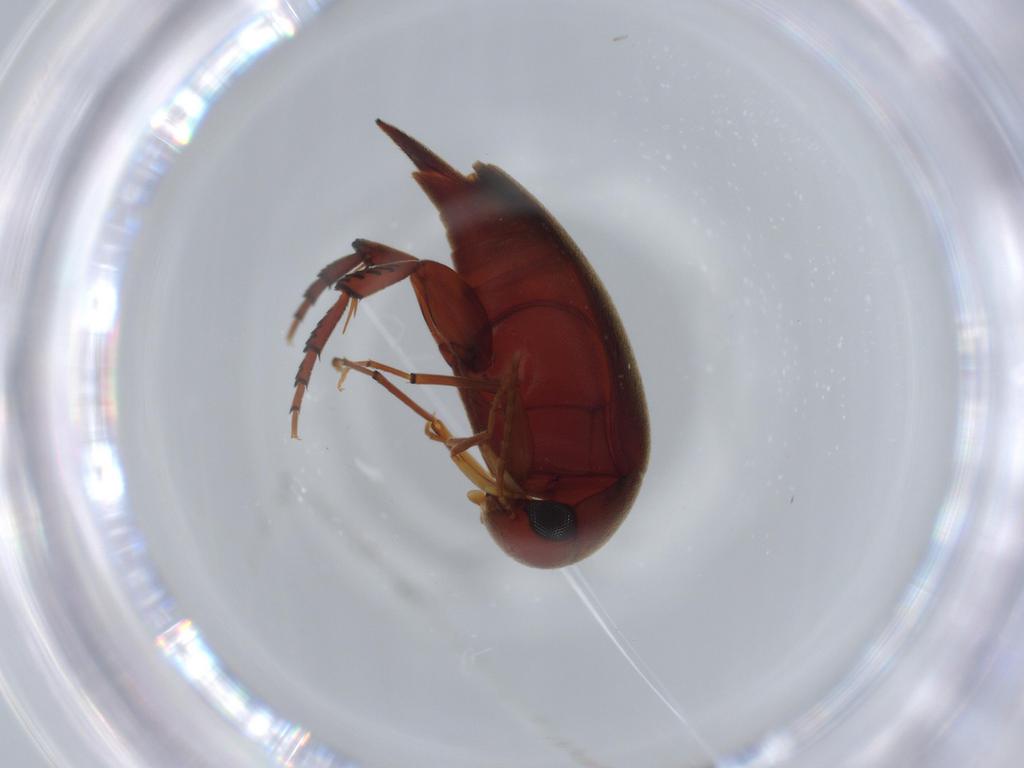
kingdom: Animalia
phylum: Arthropoda
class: Insecta
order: Coleoptera
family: Mordellidae
